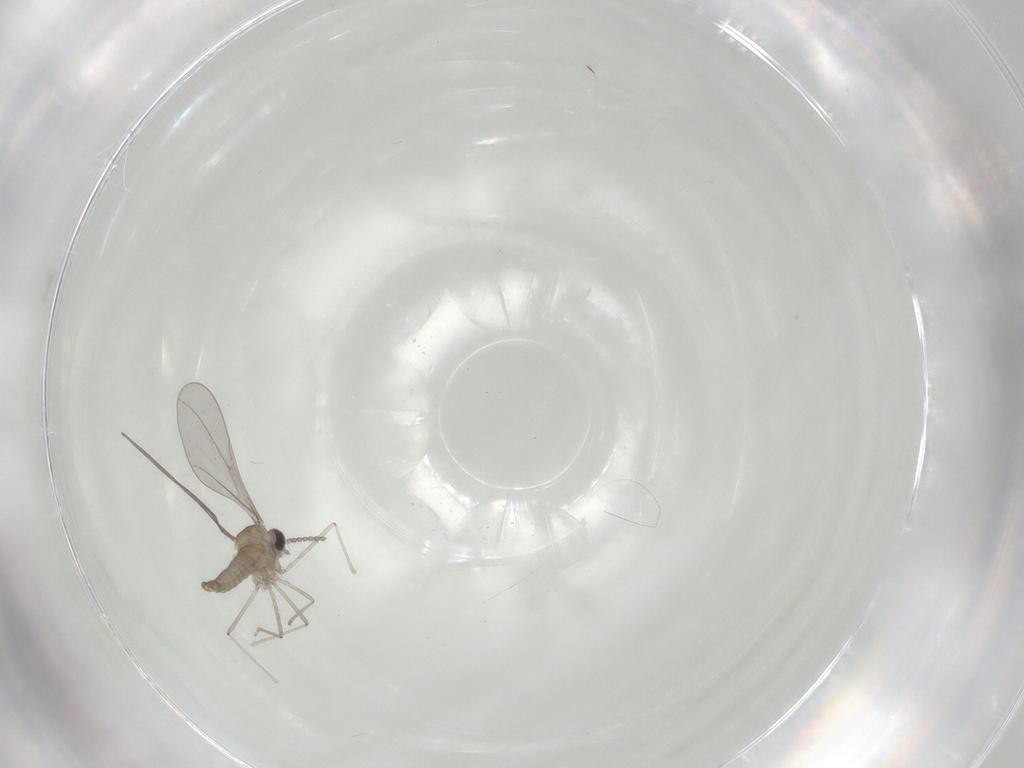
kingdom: Animalia
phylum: Arthropoda
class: Insecta
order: Diptera
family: Cecidomyiidae
